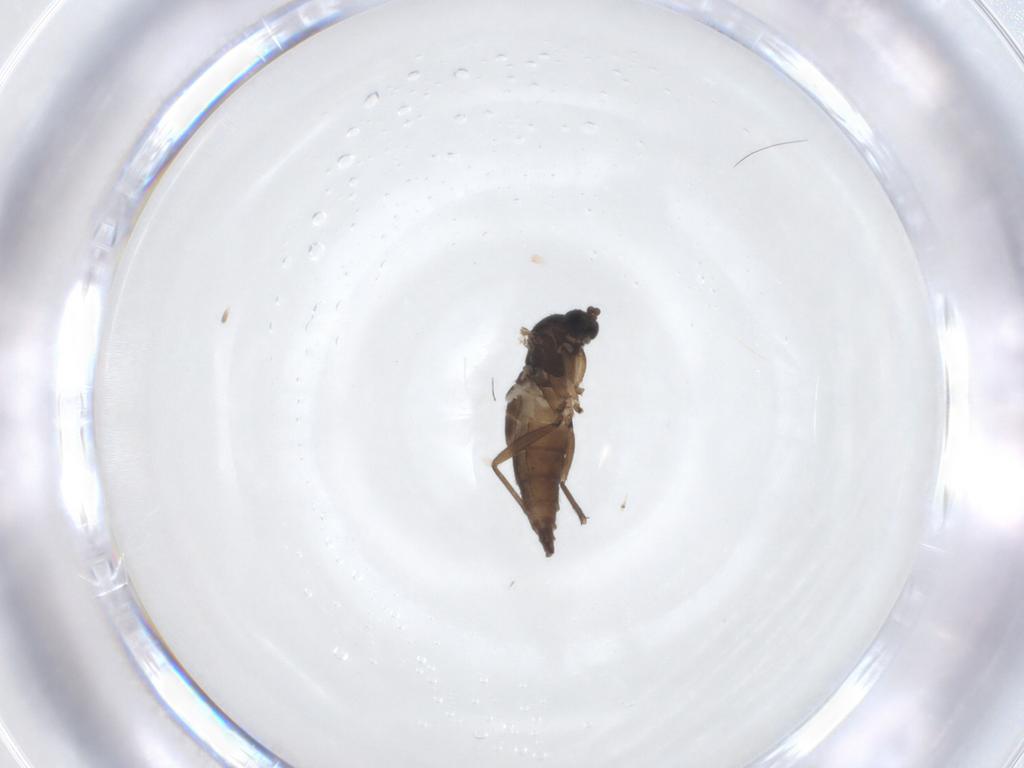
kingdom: Animalia
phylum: Arthropoda
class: Insecta
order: Diptera
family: Sciaridae
